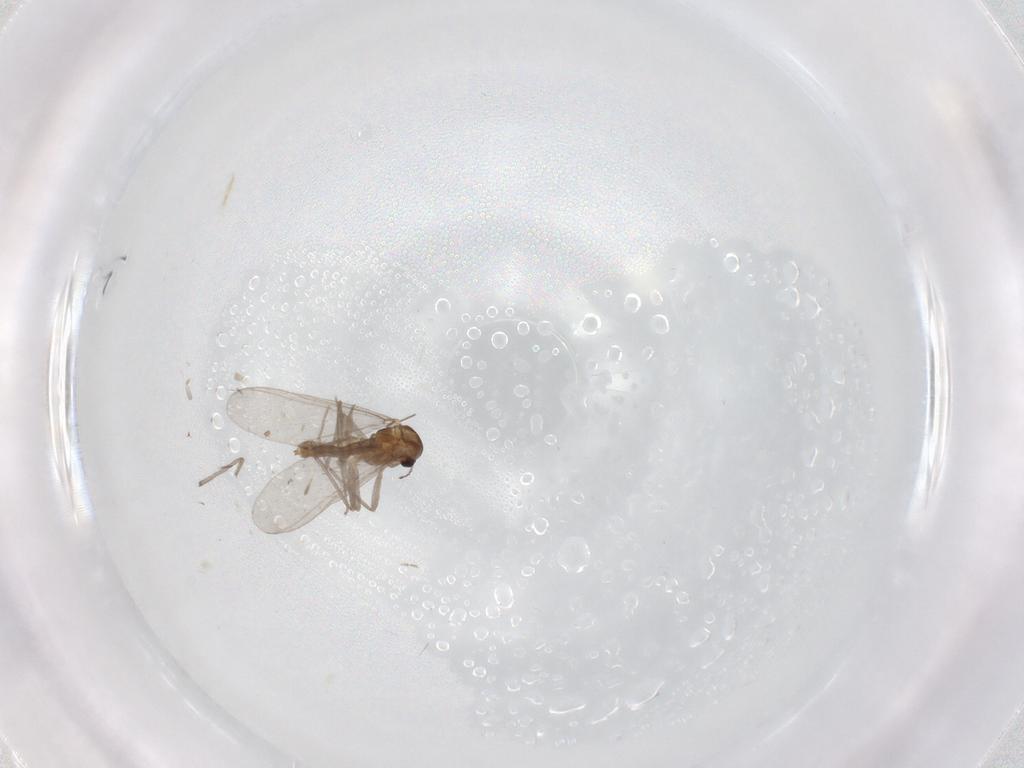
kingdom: Animalia
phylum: Arthropoda
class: Insecta
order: Diptera
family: Chironomidae
